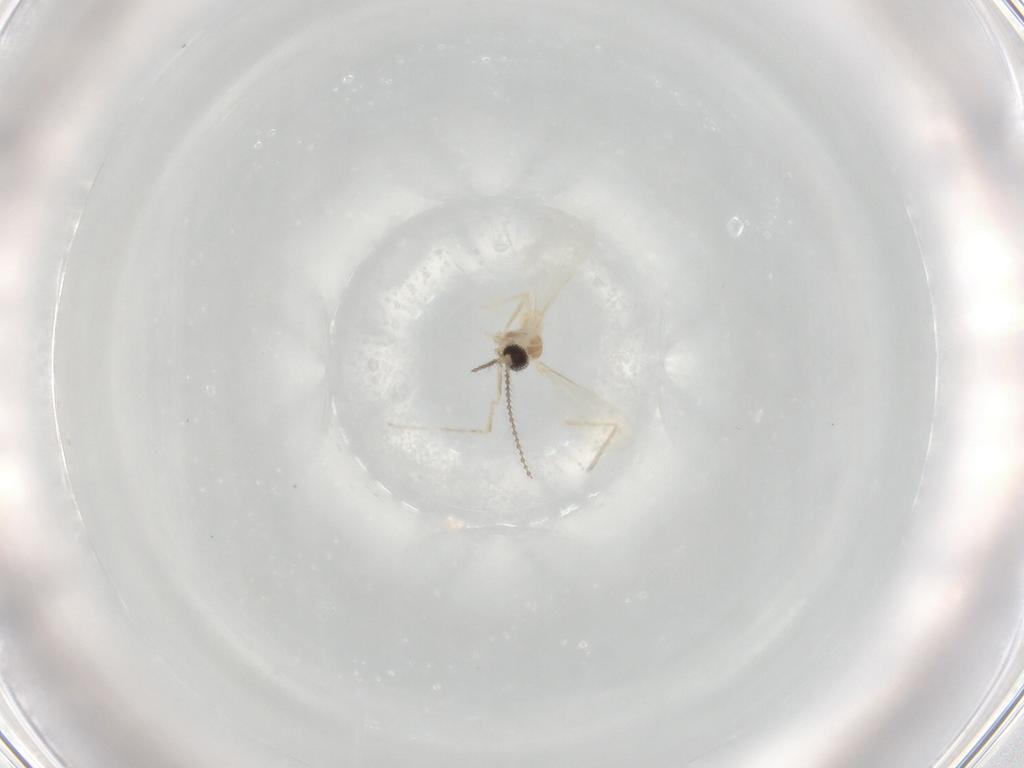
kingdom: Animalia
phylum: Arthropoda
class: Insecta
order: Diptera
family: Cecidomyiidae
